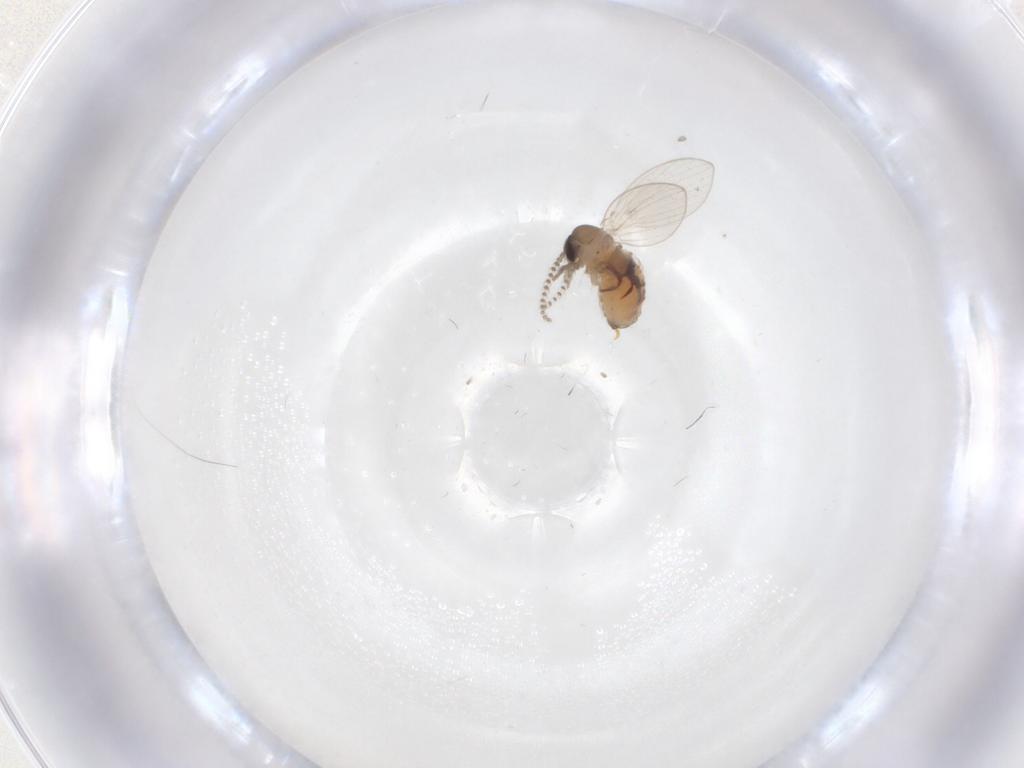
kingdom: Animalia
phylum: Arthropoda
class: Insecta
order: Diptera
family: Psychodidae
